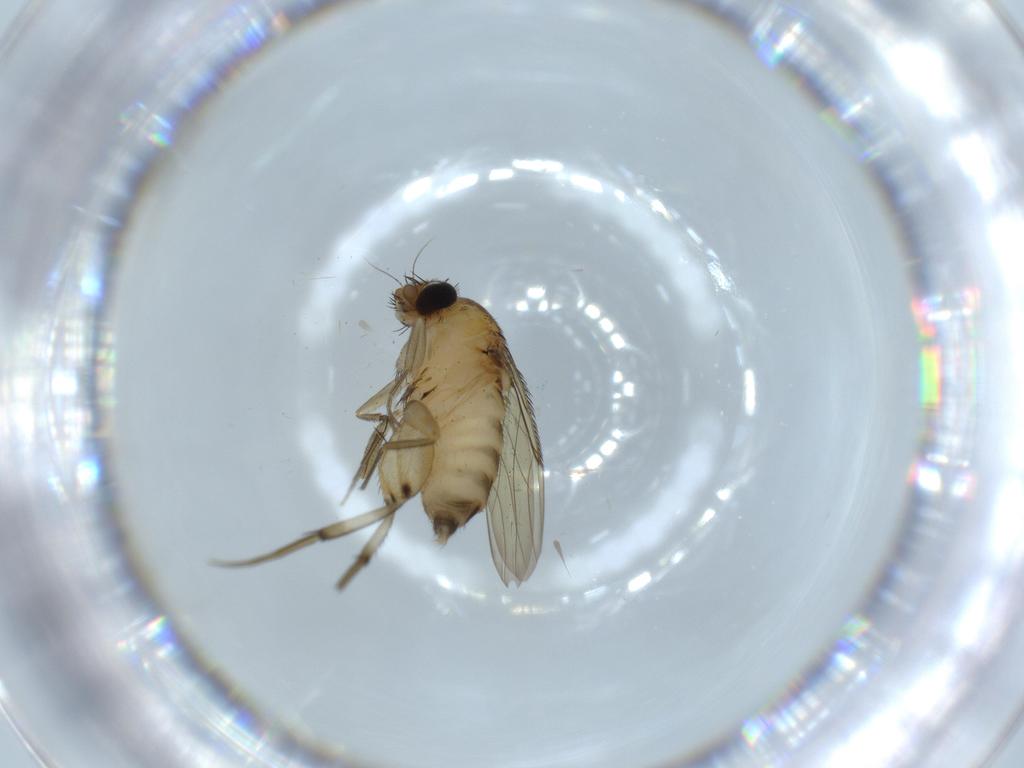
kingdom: Animalia
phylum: Arthropoda
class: Insecta
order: Diptera
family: Phoridae
